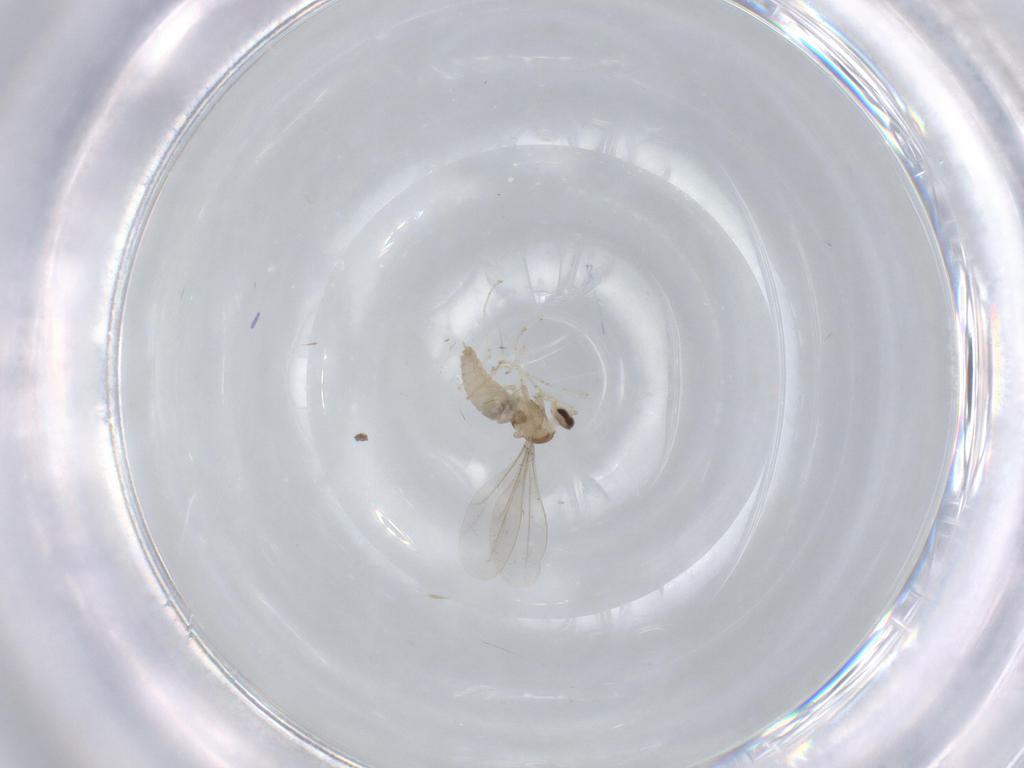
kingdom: Animalia
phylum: Arthropoda
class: Insecta
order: Diptera
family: Cecidomyiidae
